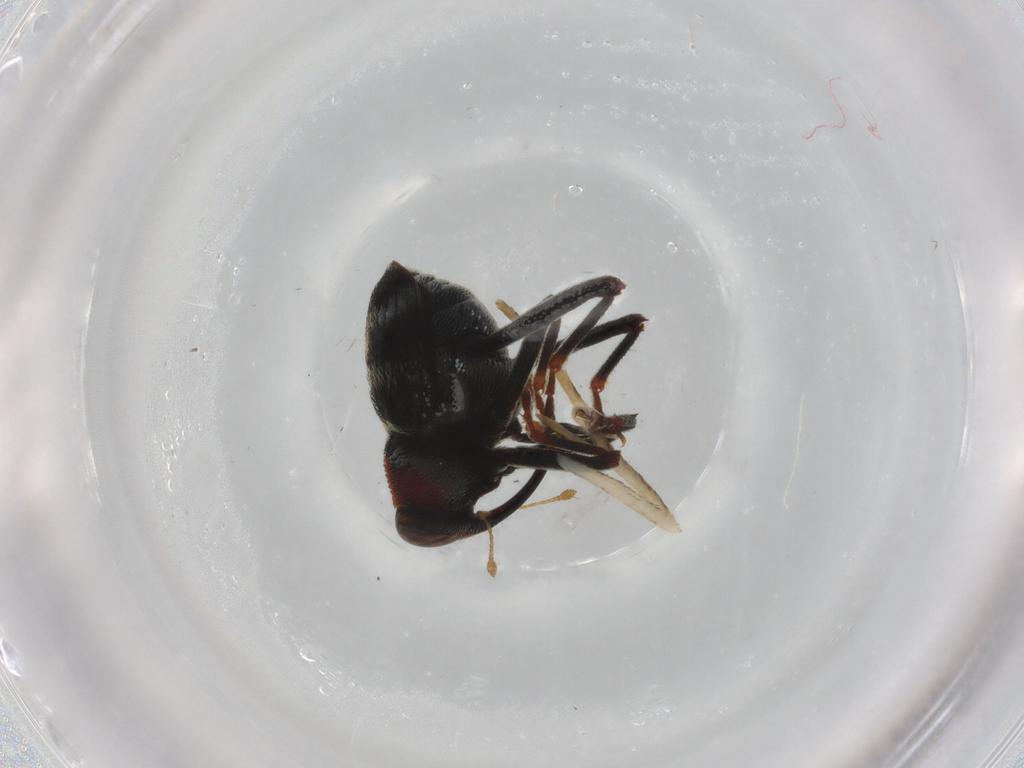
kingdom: Animalia
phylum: Arthropoda
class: Insecta
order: Coleoptera
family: Curculionidae
